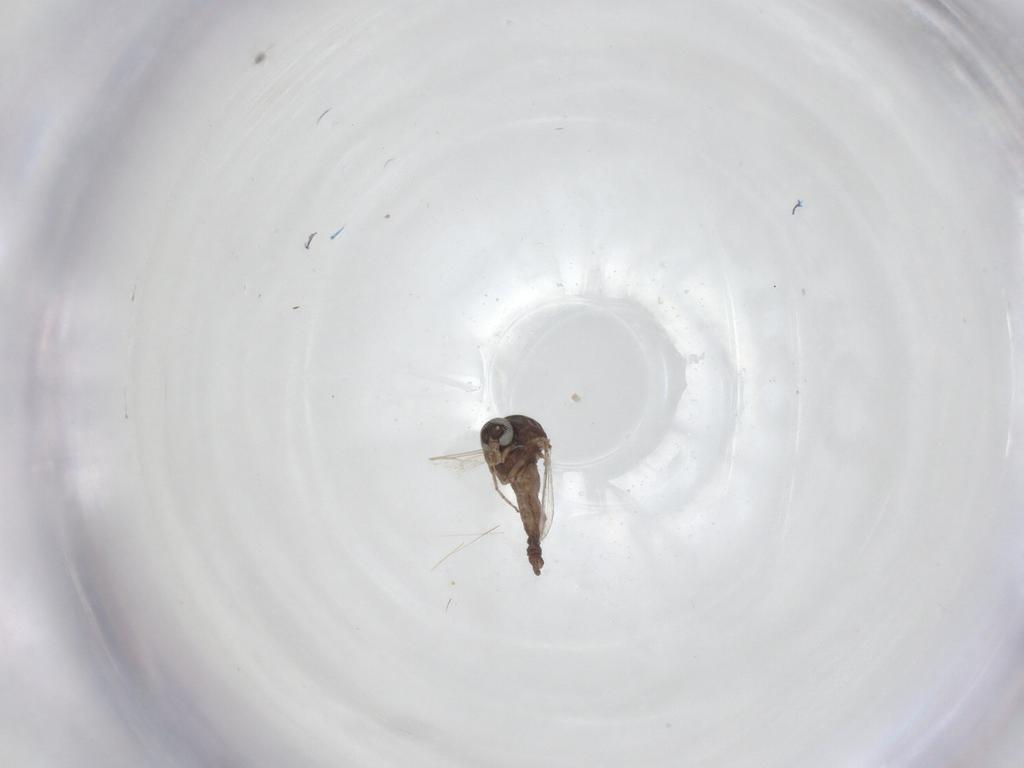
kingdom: Animalia
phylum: Arthropoda
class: Insecta
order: Diptera
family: Ceratopogonidae
